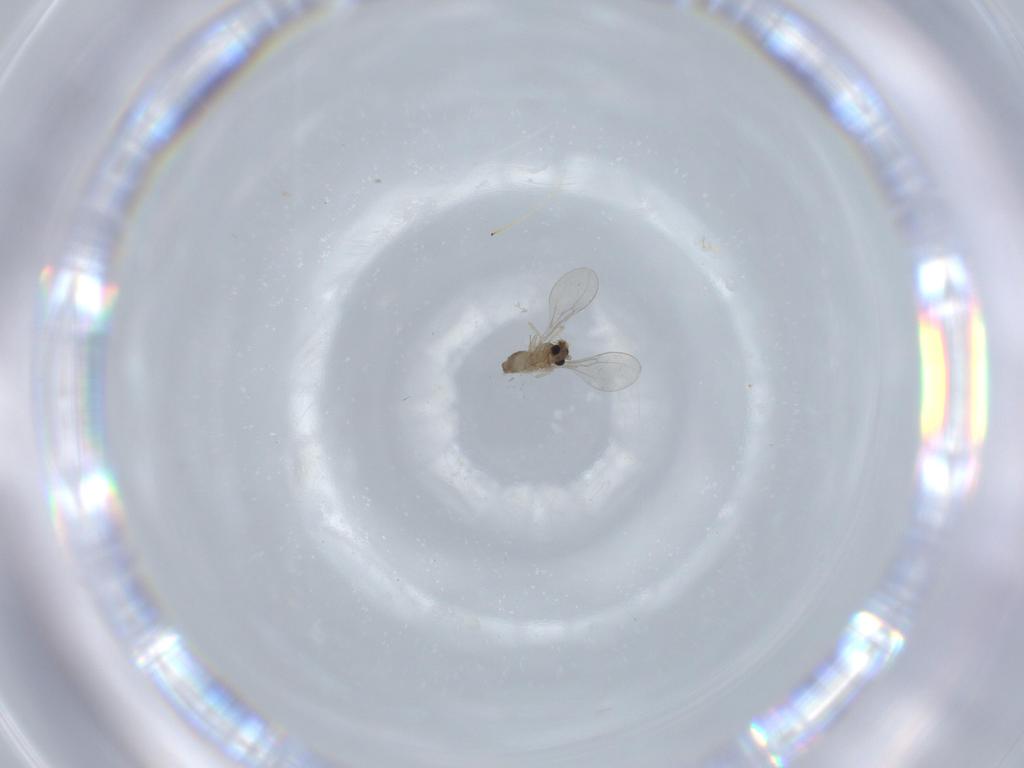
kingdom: Animalia
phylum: Arthropoda
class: Insecta
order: Diptera
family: Cecidomyiidae
